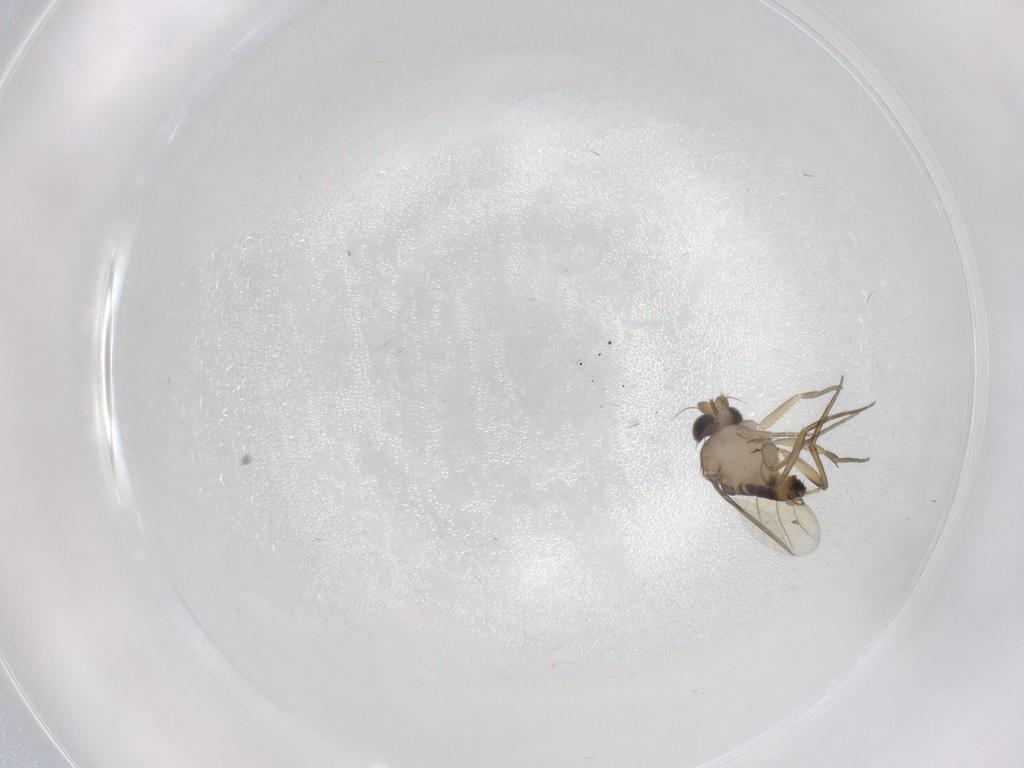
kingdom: Animalia
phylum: Arthropoda
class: Insecta
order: Diptera
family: Phoridae
